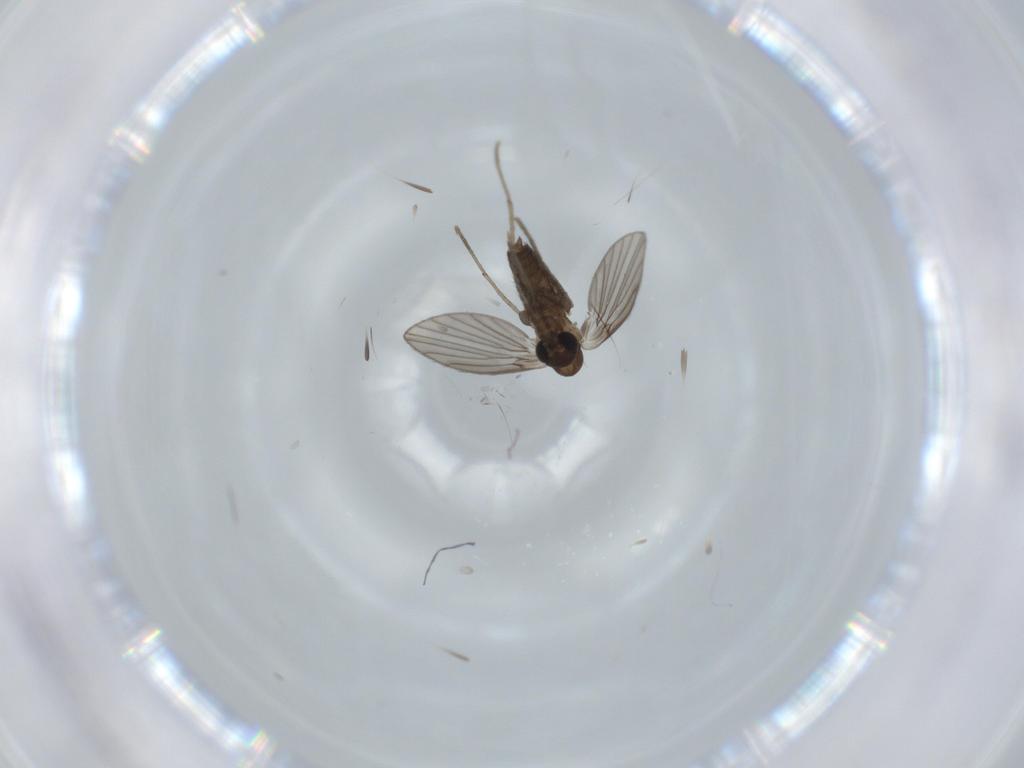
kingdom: Animalia
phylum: Arthropoda
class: Insecta
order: Diptera
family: Psychodidae
